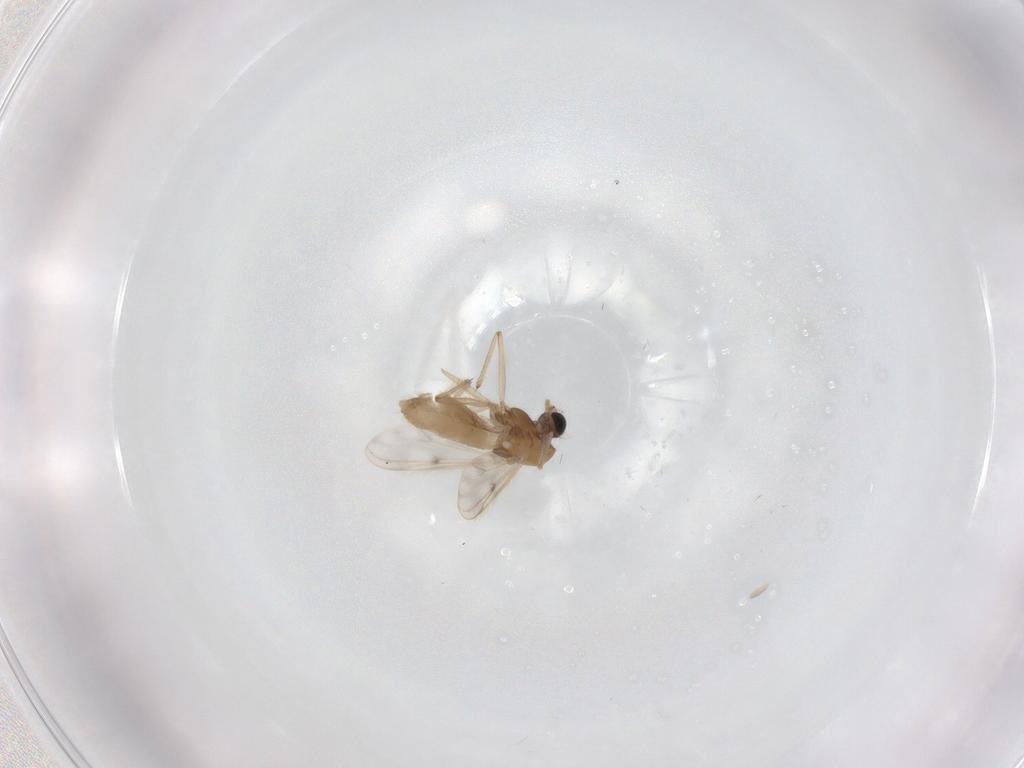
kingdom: Animalia
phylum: Arthropoda
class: Insecta
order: Diptera
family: Chironomidae
